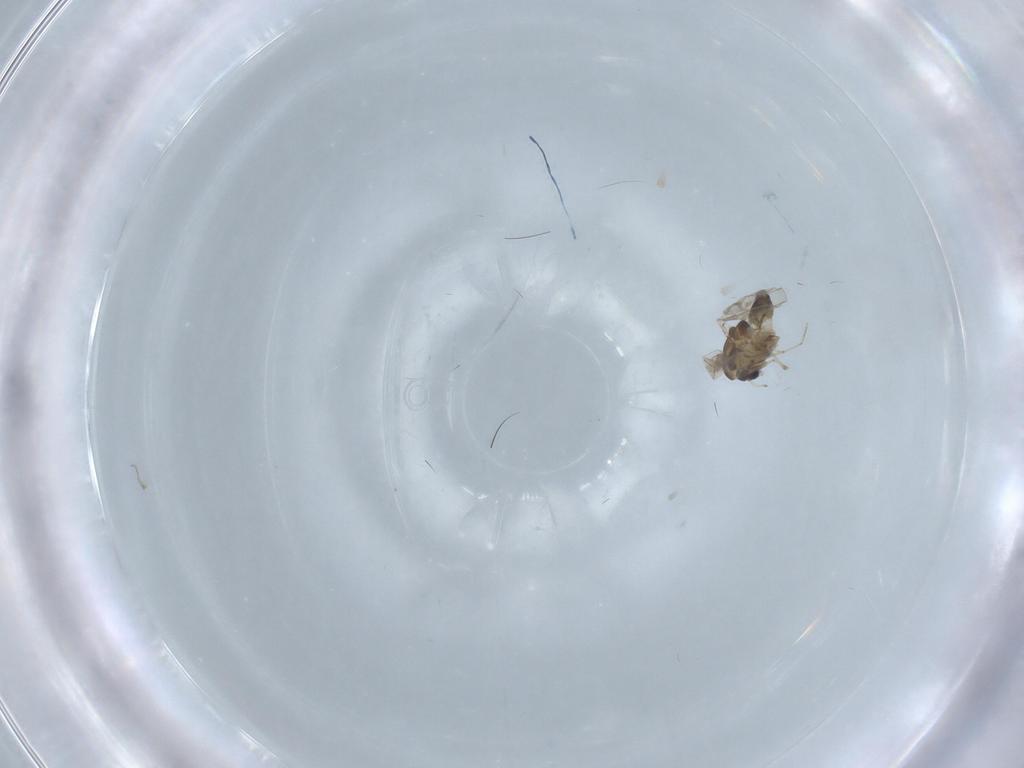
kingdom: Animalia
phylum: Arthropoda
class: Insecta
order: Diptera
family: Chironomidae
